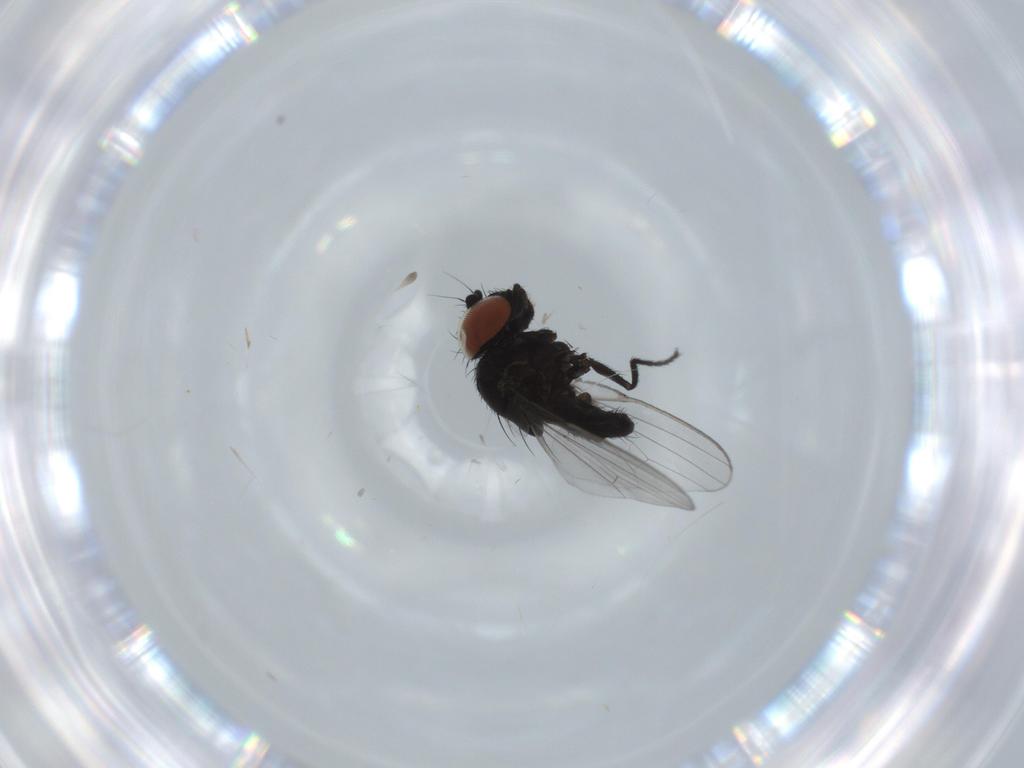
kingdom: Animalia
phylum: Arthropoda
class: Insecta
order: Diptera
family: Milichiidae
